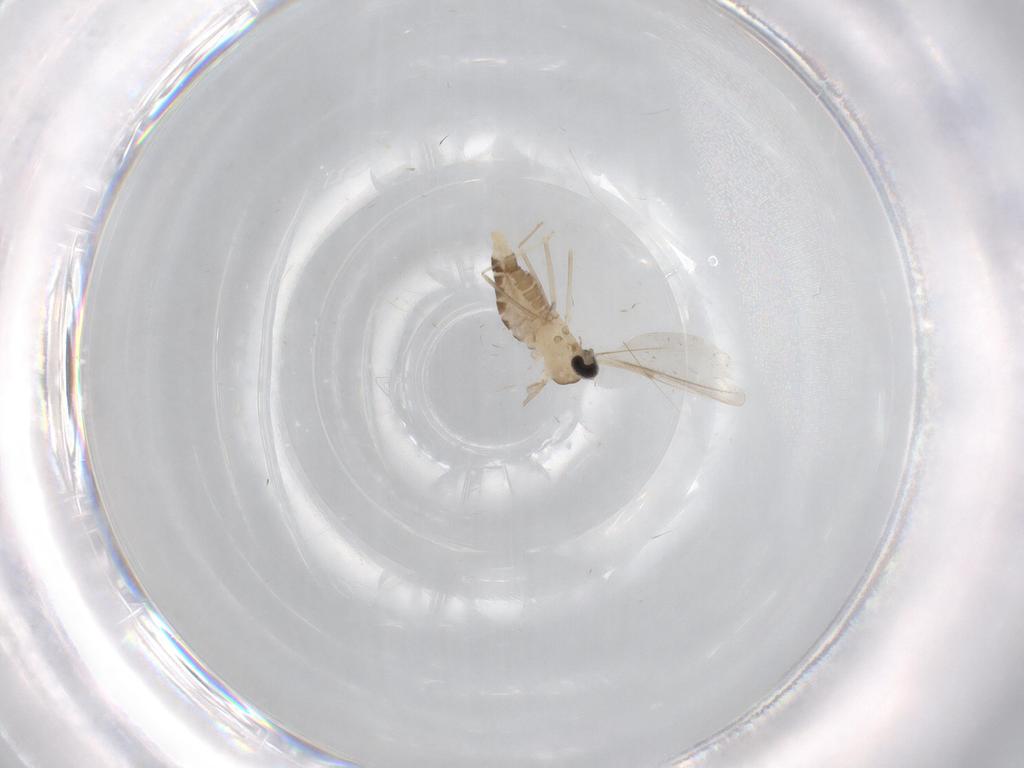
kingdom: Animalia
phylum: Arthropoda
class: Insecta
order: Diptera
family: Cecidomyiidae
